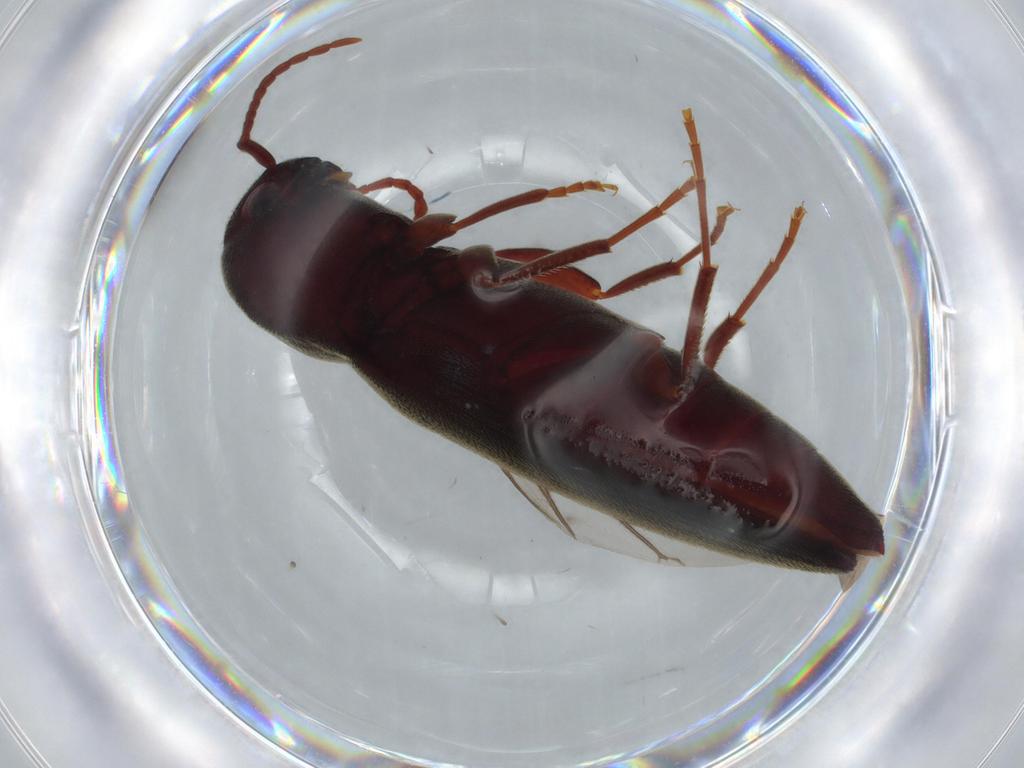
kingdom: Animalia
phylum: Arthropoda
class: Insecta
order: Coleoptera
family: Eucnemidae
